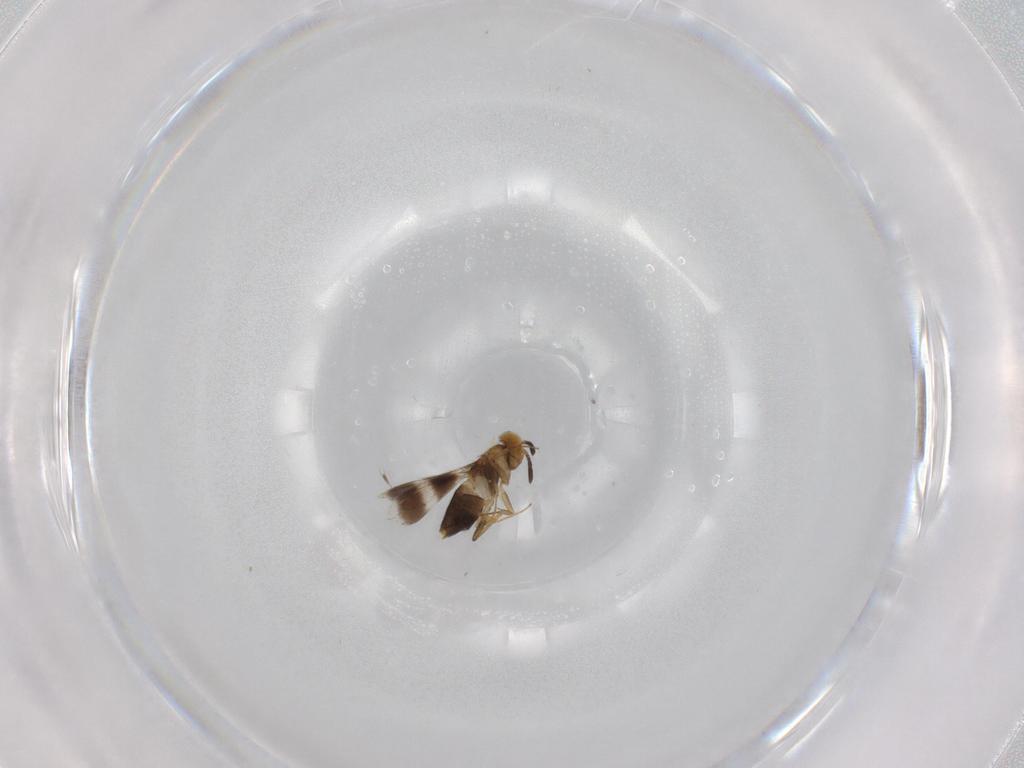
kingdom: Animalia
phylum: Arthropoda
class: Insecta
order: Hymenoptera
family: Aphelinidae
